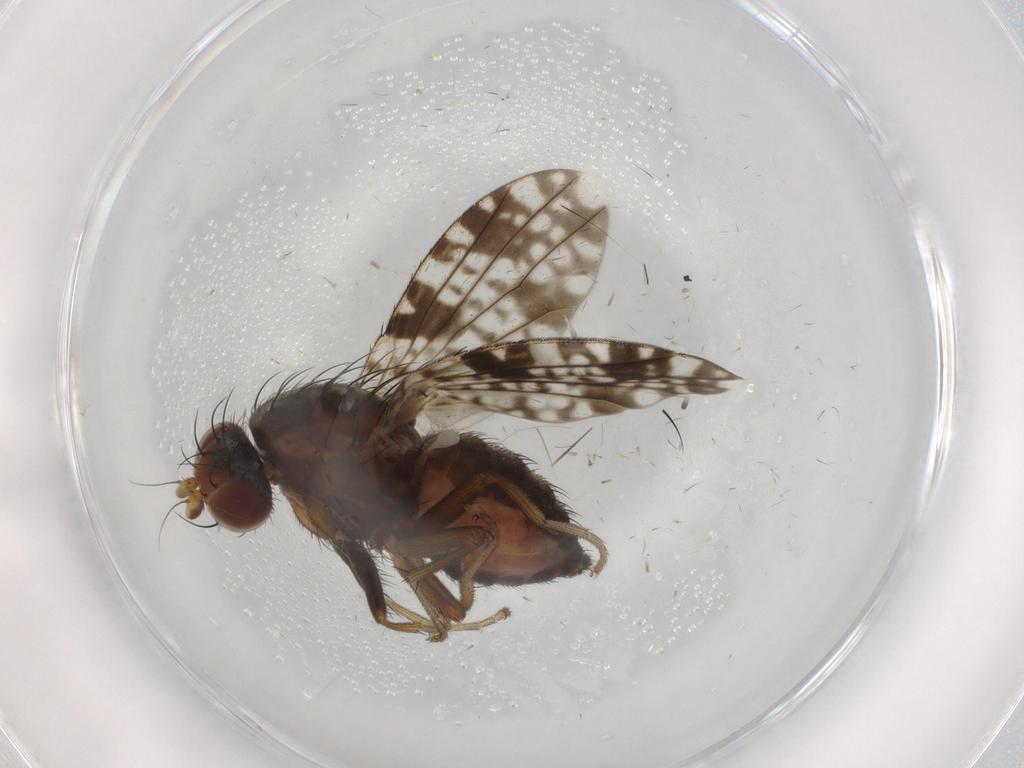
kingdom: Animalia
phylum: Arthropoda
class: Insecta
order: Diptera
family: Tephritidae
